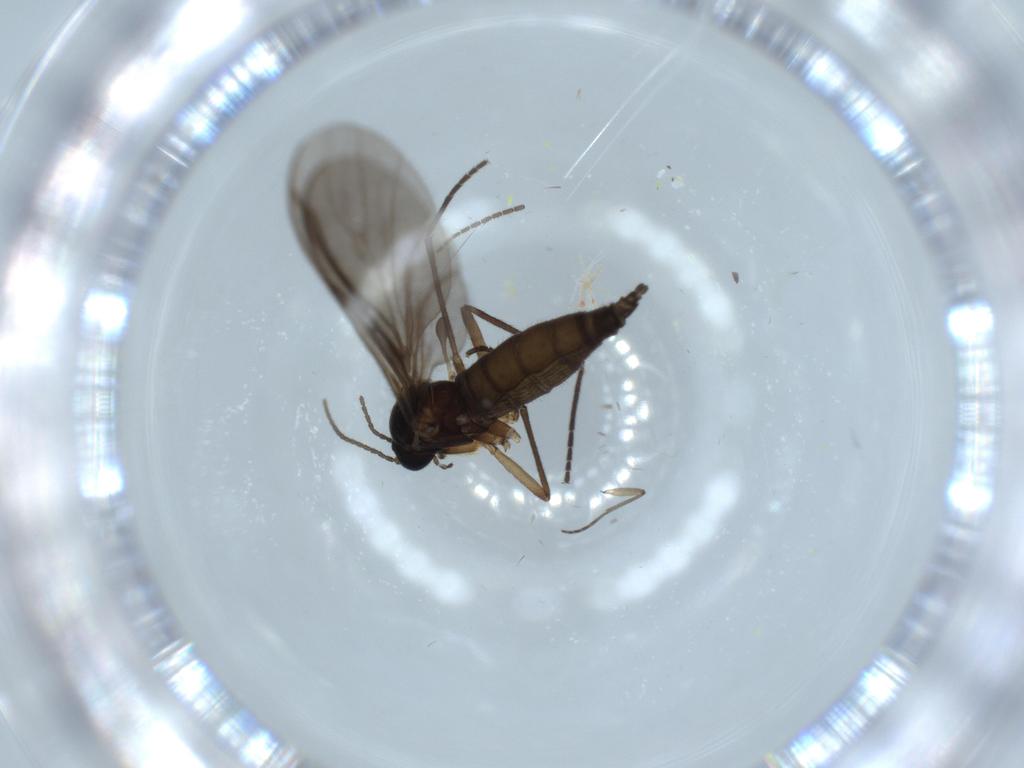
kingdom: Animalia
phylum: Arthropoda
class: Insecta
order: Diptera
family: Sciaridae
